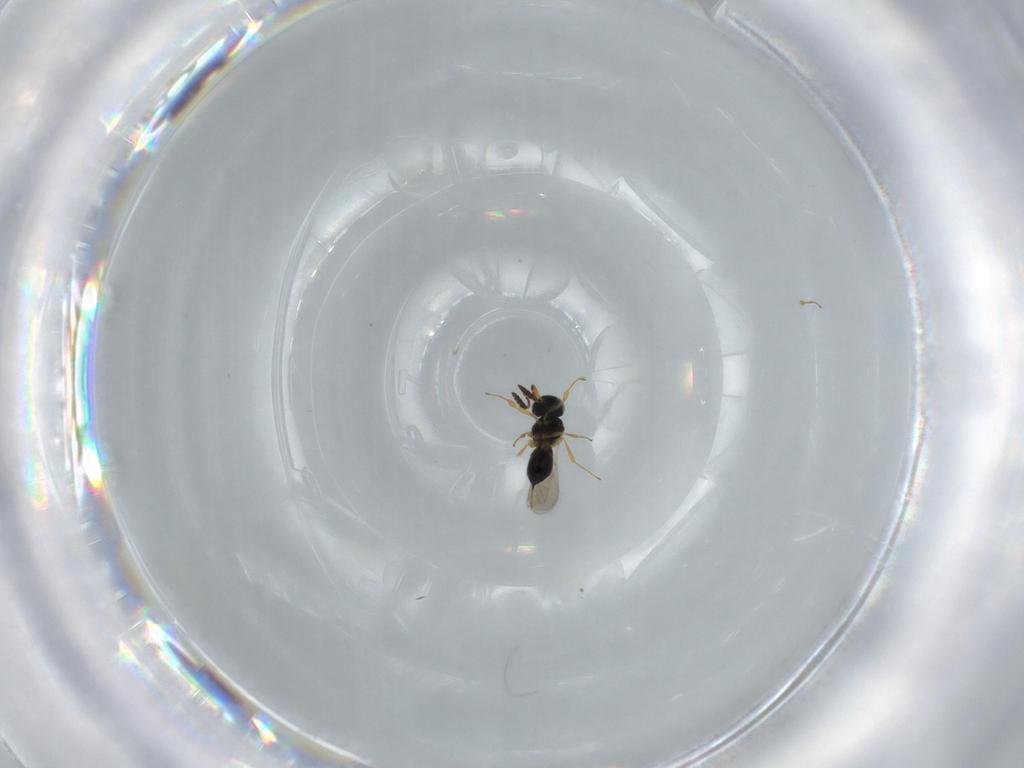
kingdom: Animalia
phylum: Arthropoda
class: Insecta
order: Hymenoptera
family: Scelionidae
